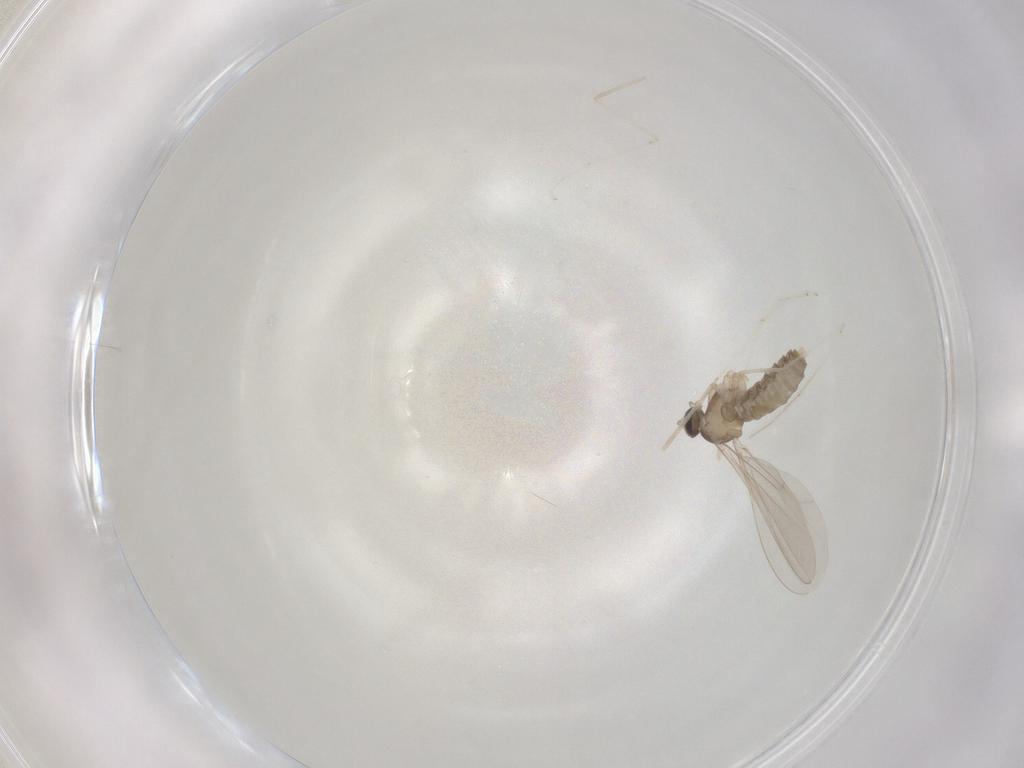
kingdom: Animalia
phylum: Arthropoda
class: Insecta
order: Diptera
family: Cecidomyiidae
